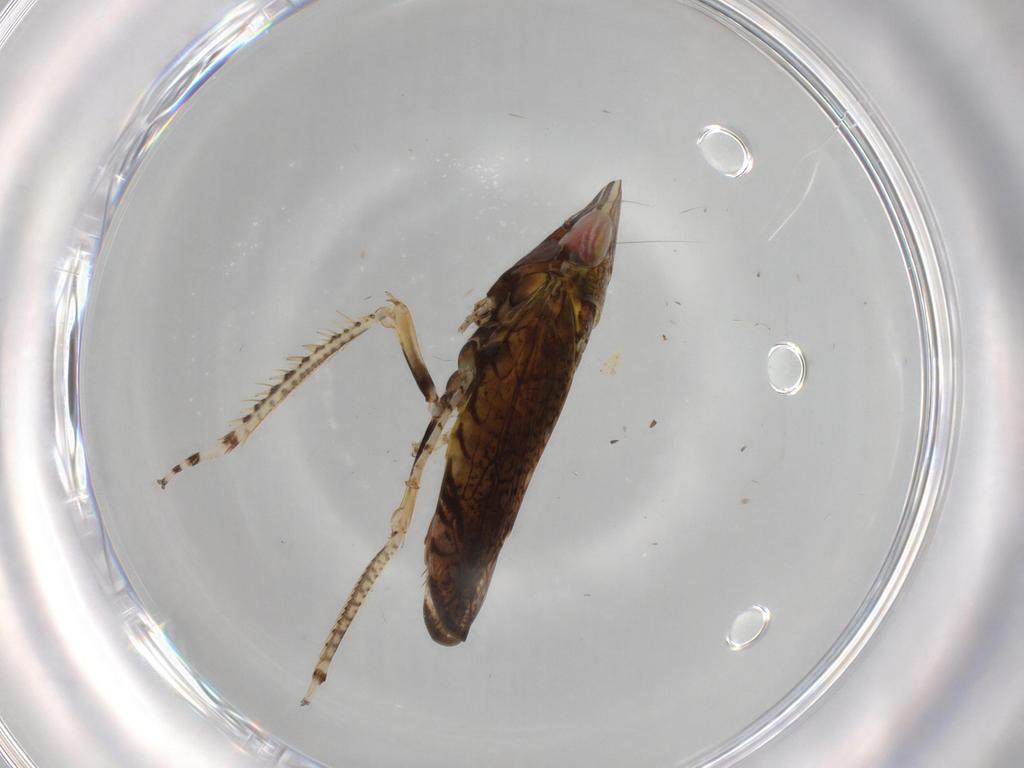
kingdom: Animalia
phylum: Arthropoda
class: Insecta
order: Hemiptera
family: Cicadellidae
